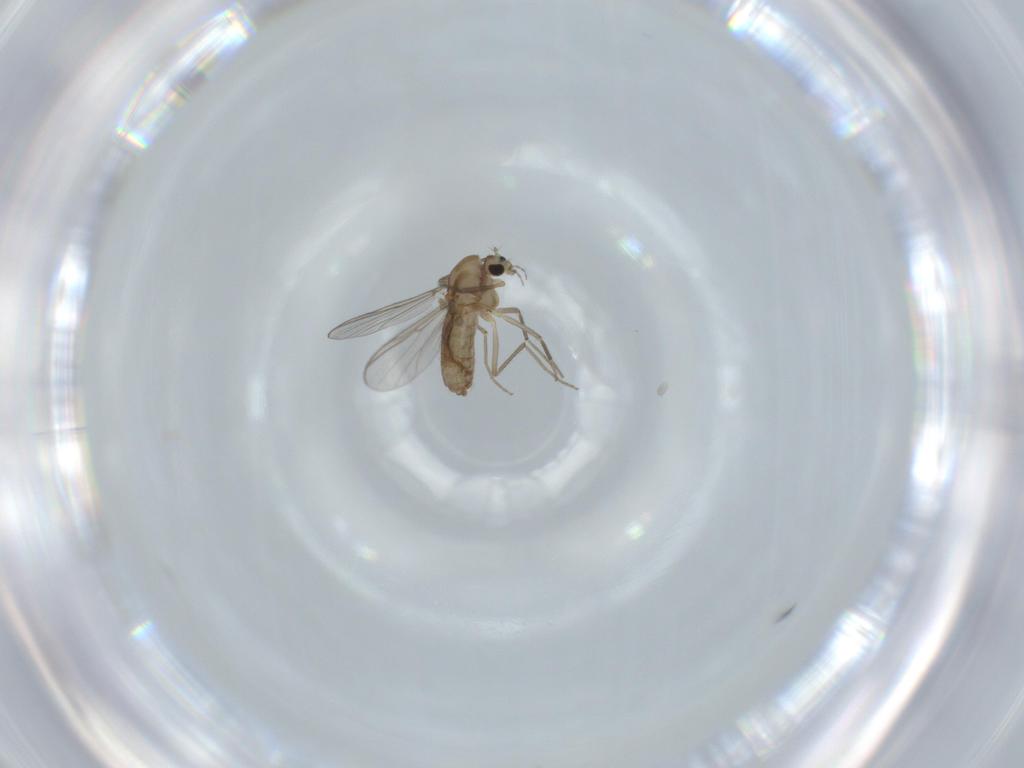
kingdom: Animalia
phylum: Arthropoda
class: Insecta
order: Diptera
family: Chironomidae
